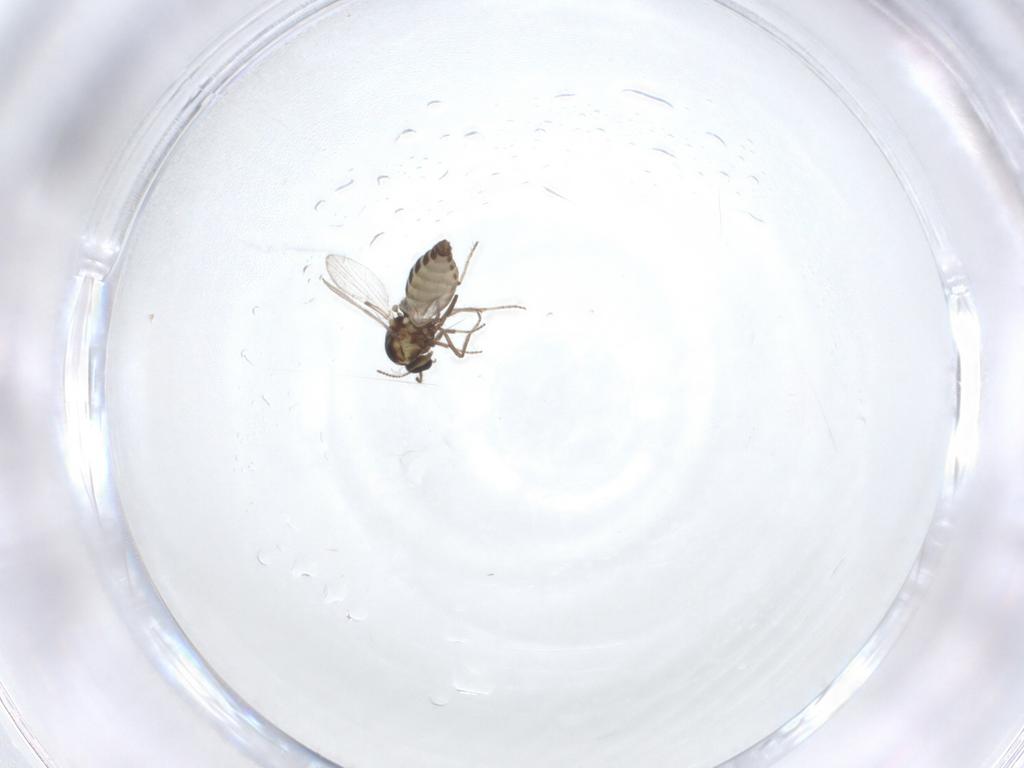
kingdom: Animalia
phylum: Arthropoda
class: Insecta
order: Diptera
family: Ceratopogonidae
